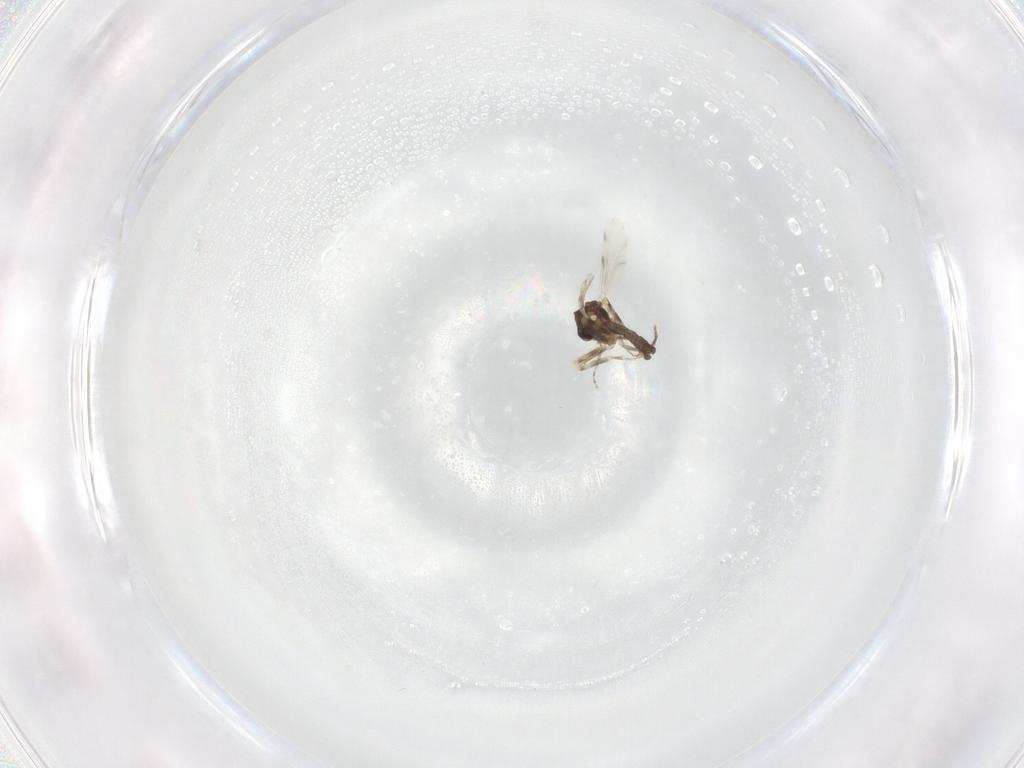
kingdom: Animalia
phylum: Arthropoda
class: Insecta
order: Diptera
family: Ceratopogonidae
